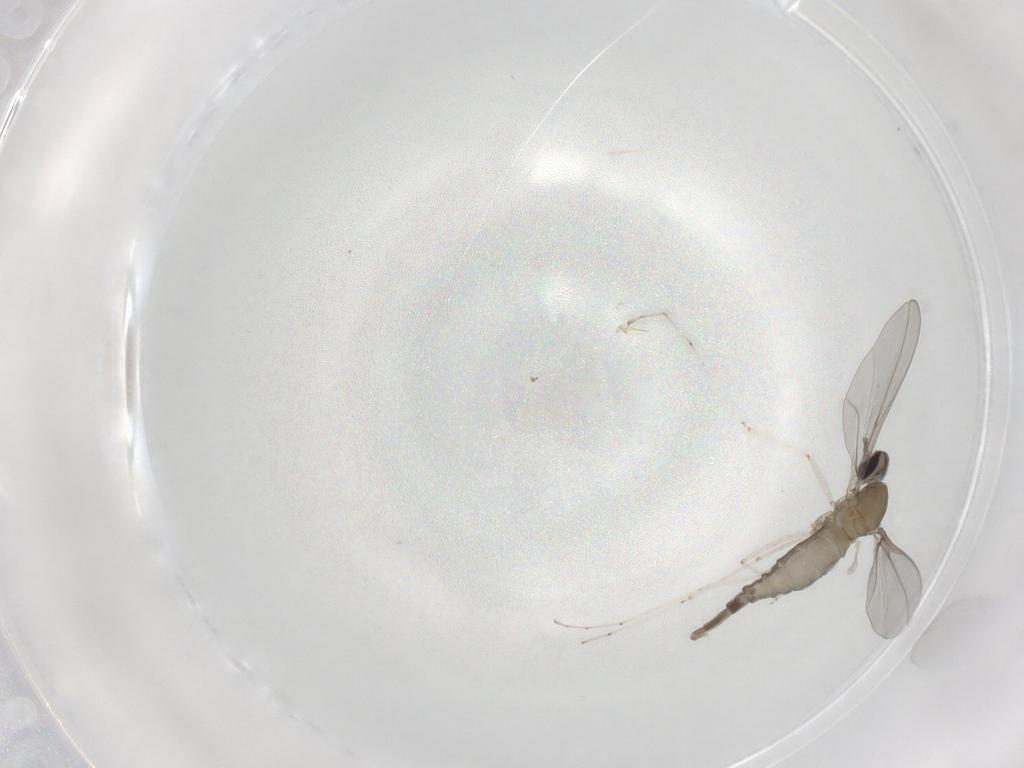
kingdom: Animalia
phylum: Arthropoda
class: Insecta
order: Diptera
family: Cecidomyiidae
